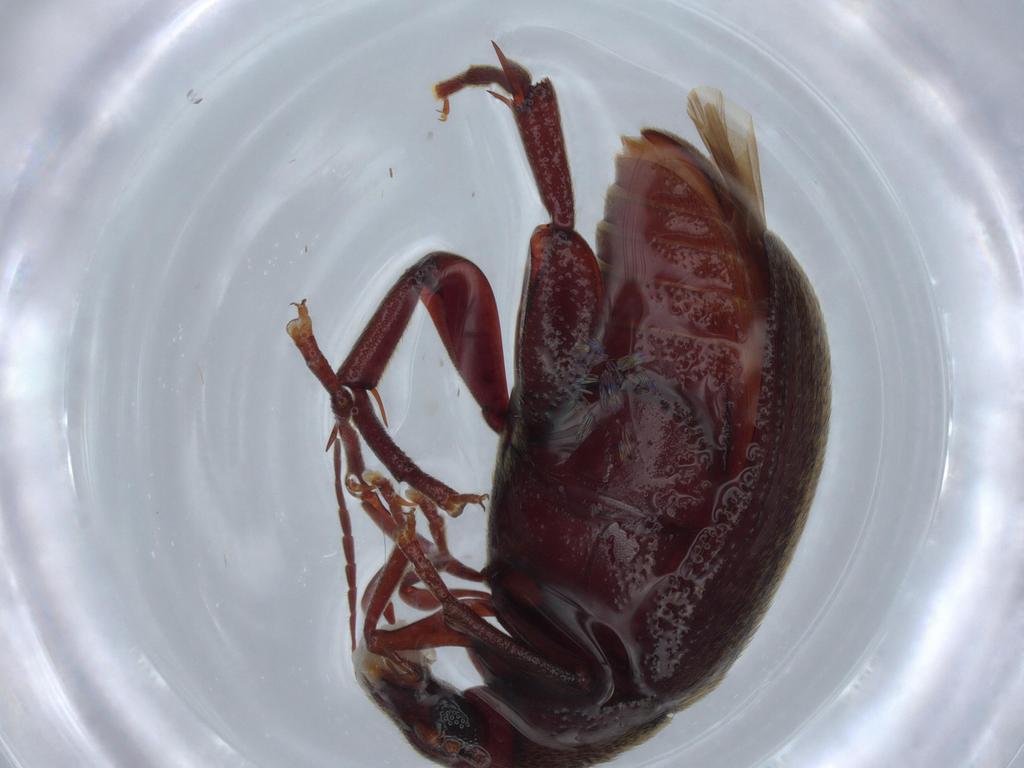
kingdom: Animalia
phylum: Arthropoda
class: Insecta
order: Coleoptera
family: Chrysomelidae
